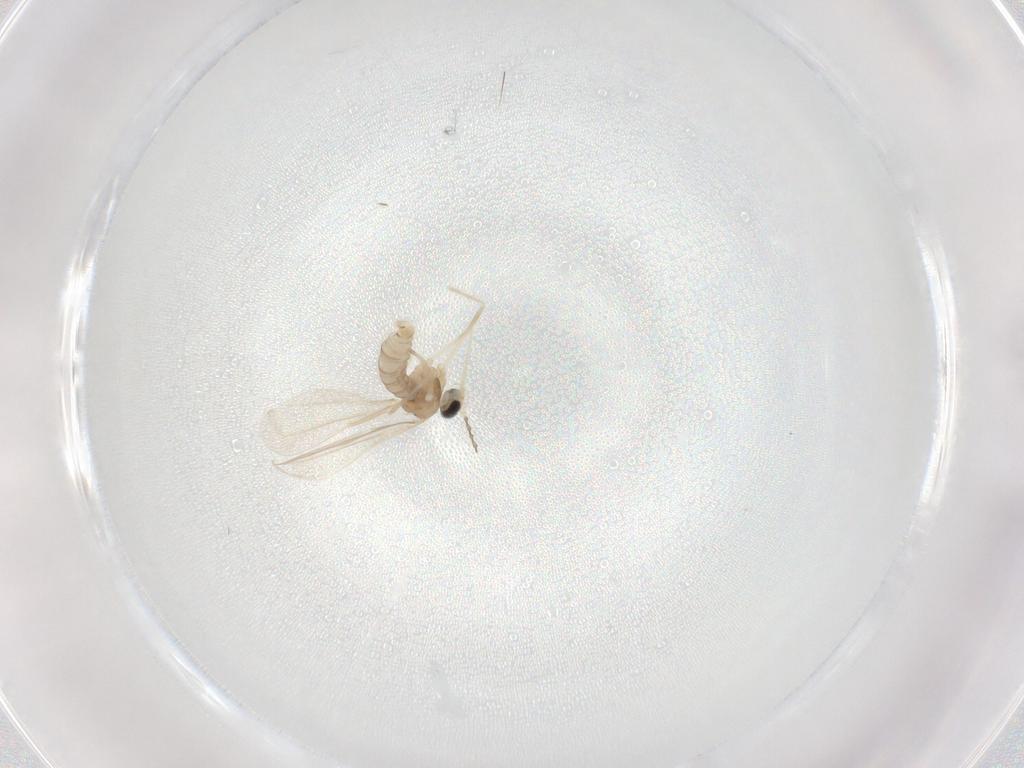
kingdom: Animalia
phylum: Arthropoda
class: Insecta
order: Diptera
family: Cecidomyiidae
